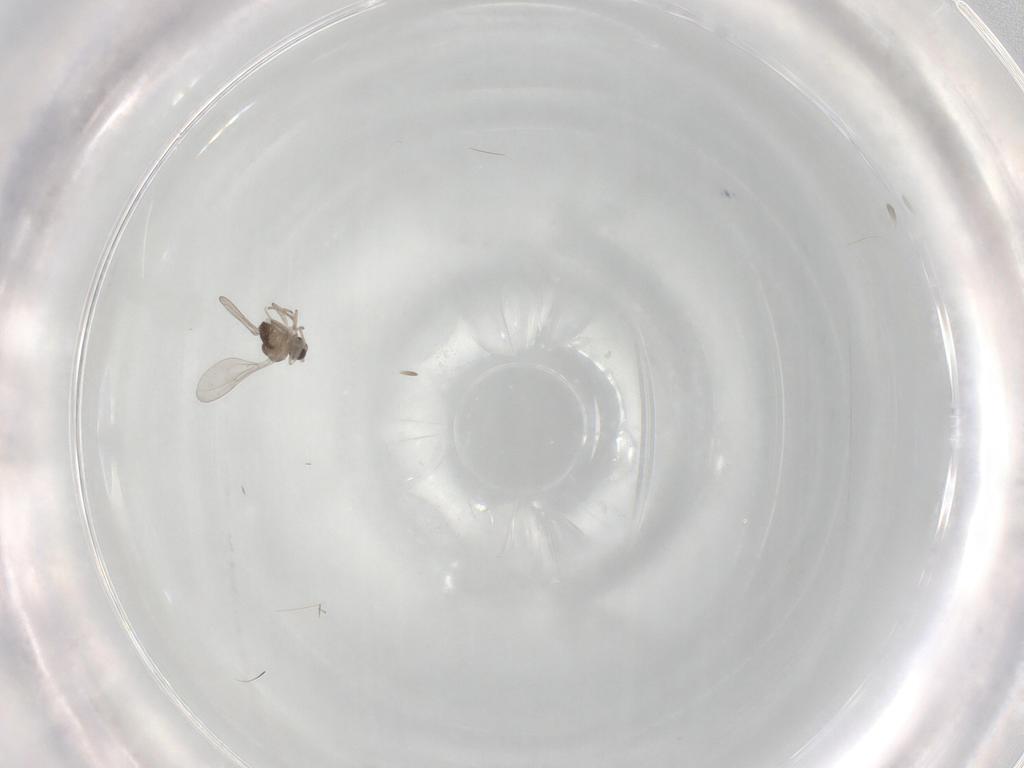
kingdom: Animalia
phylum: Arthropoda
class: Insecta
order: Diptera
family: Cecidomyiidae
